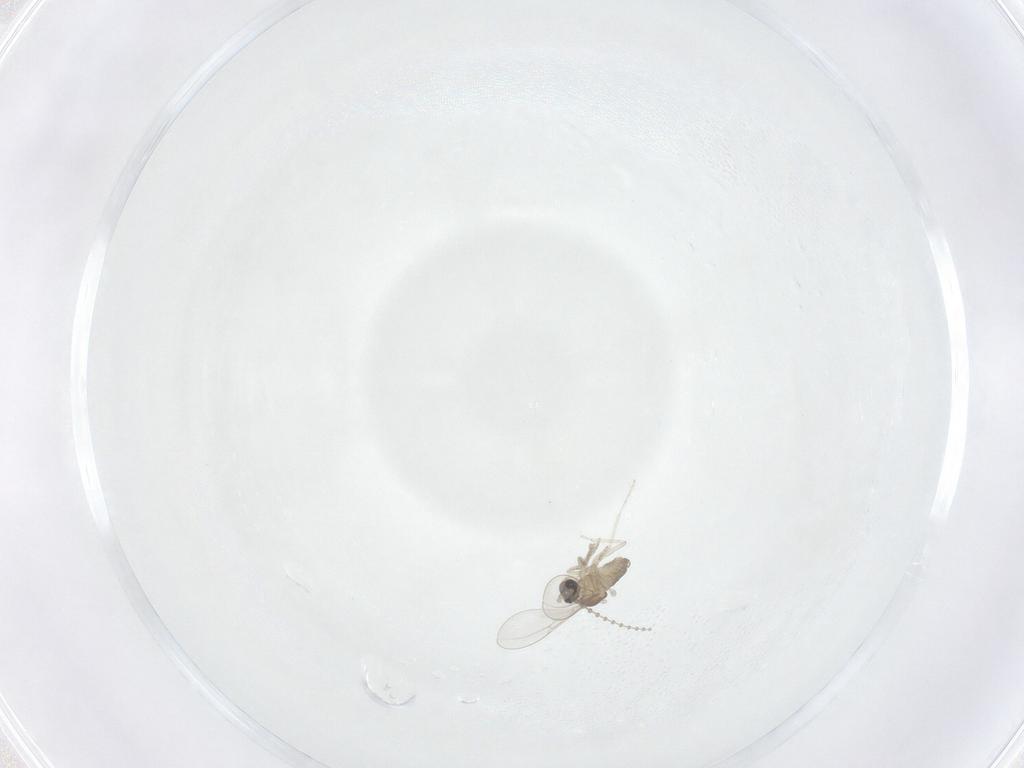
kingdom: Animalia
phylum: Arthropoda
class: Insecta
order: Diptera
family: Cecidomyiidae
